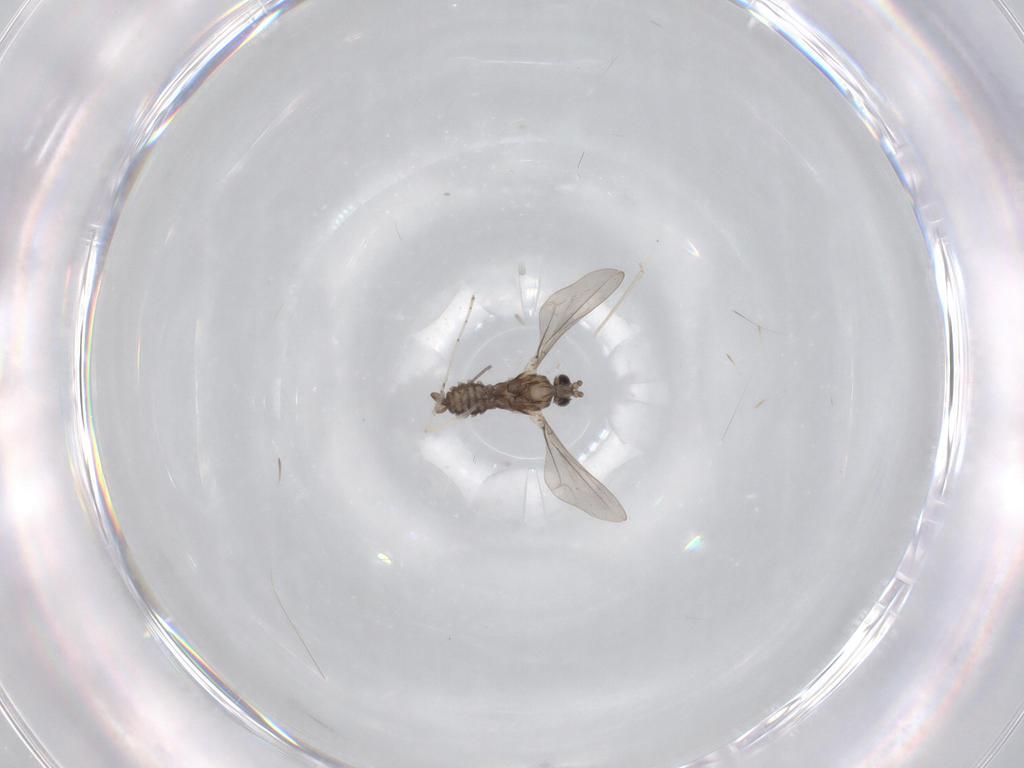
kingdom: Animalia
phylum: Arthropoda
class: Insecta
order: Diptera
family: Cecidomyiidae
